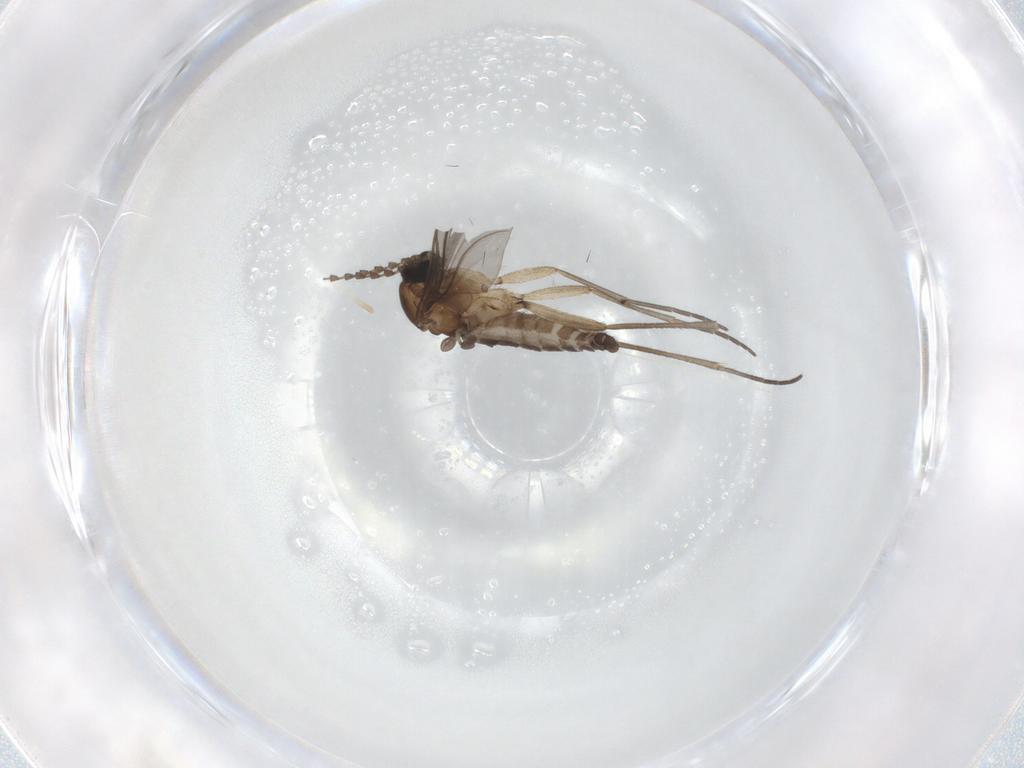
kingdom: Animalia
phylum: Arthropoda
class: Insecta
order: Diptera
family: Sciaridae
